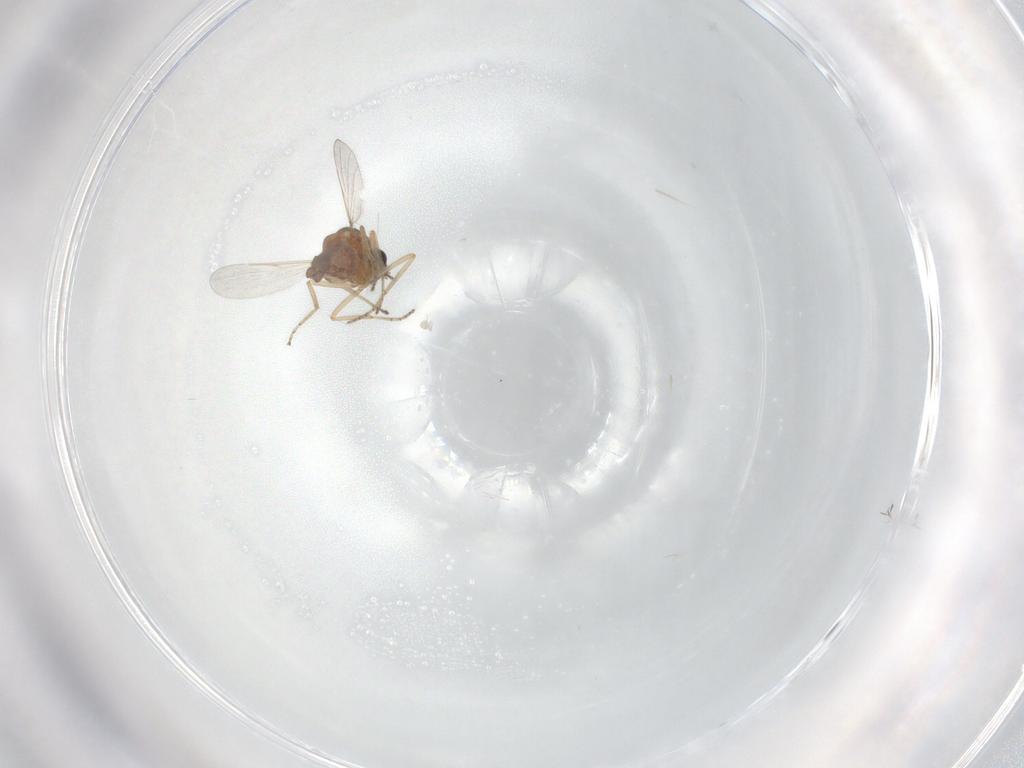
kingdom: Animalia
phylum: Arthropoda
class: Insecta
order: Diptera
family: Ceratopogonidae
